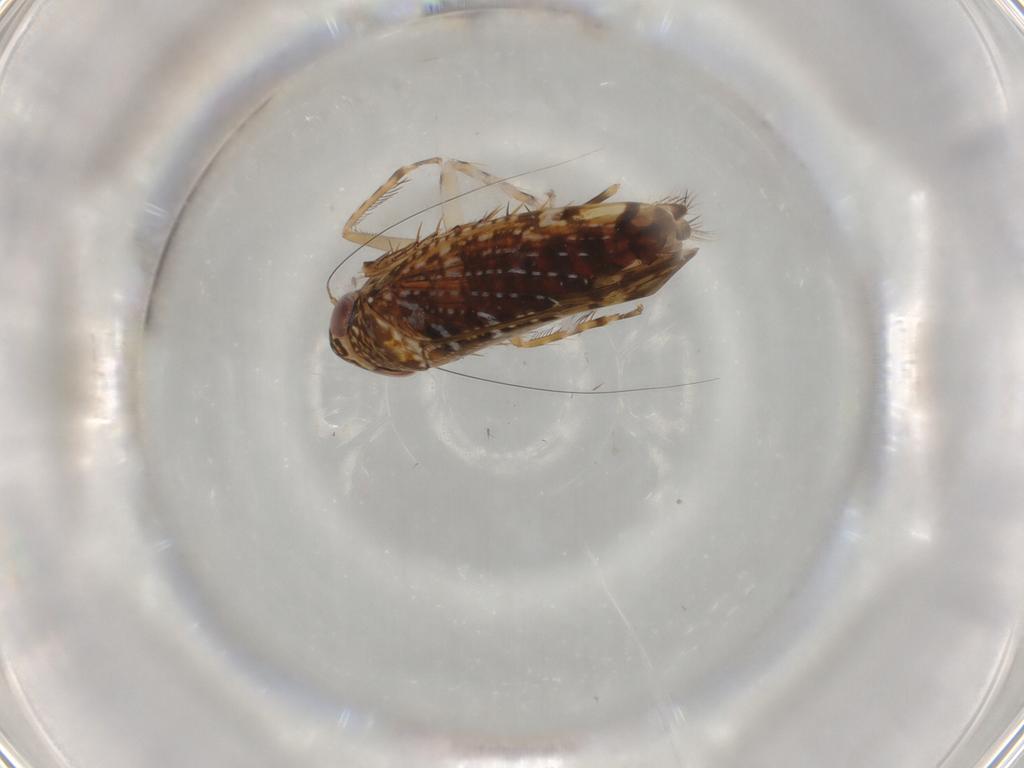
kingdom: Animalia
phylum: Arthropoda
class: Insecta
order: Hemiptera
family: Cicadellidae
